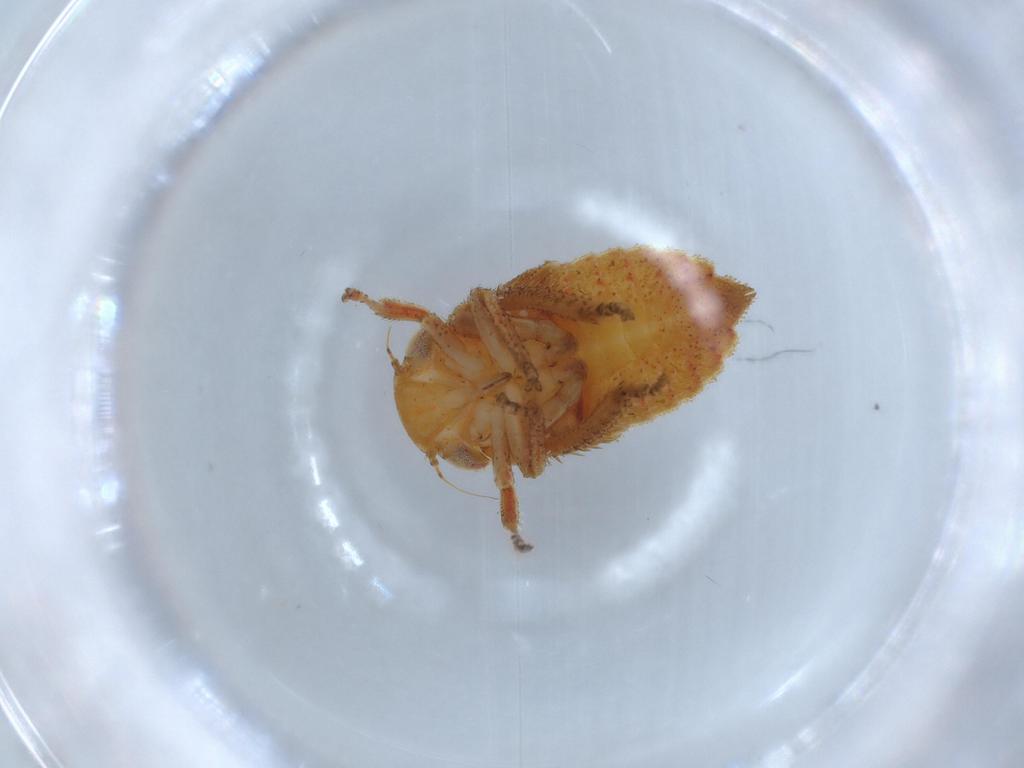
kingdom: Animalia
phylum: Arthropoda
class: Insecta
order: Hemiptera
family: Cicadellidae
